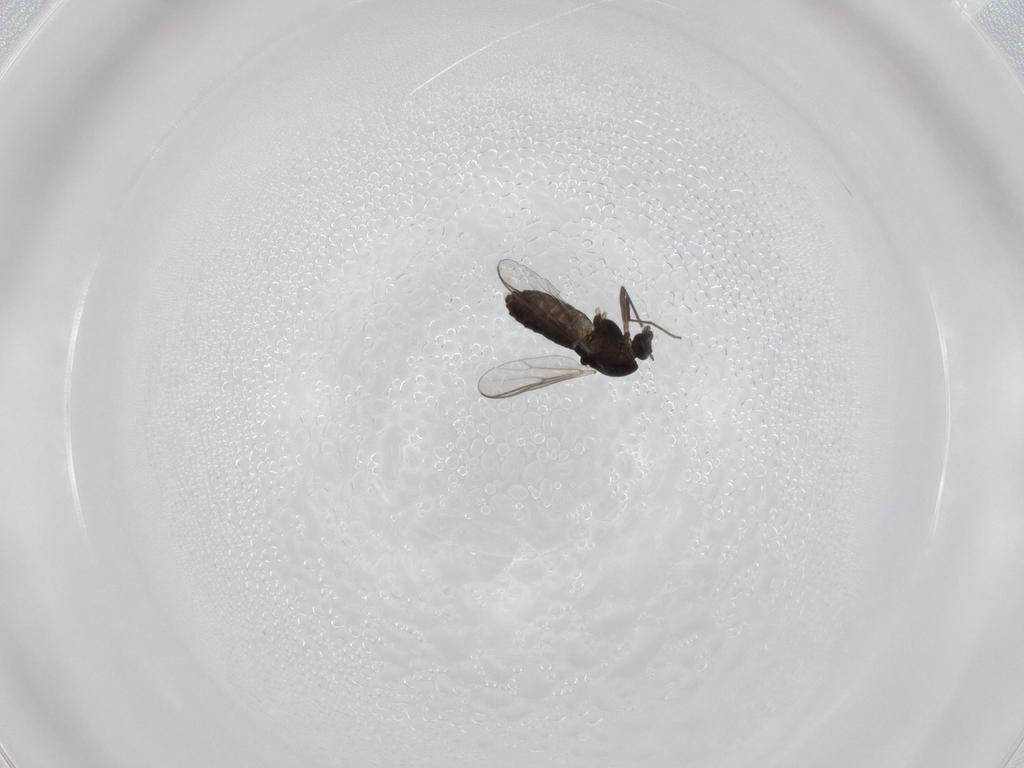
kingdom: Animalia
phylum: Arthropoda
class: Insecta
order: Diptera
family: Chironomidae
